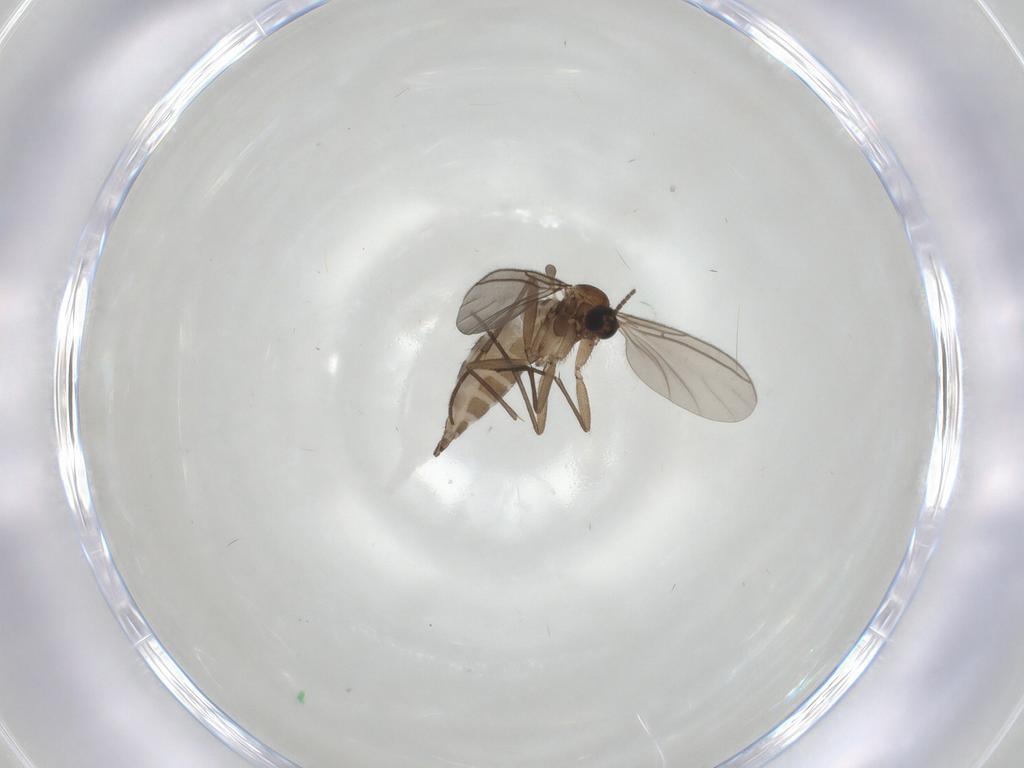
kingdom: Animalia
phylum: Arthropoda
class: Insecta
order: Diptera
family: Sciaridae
